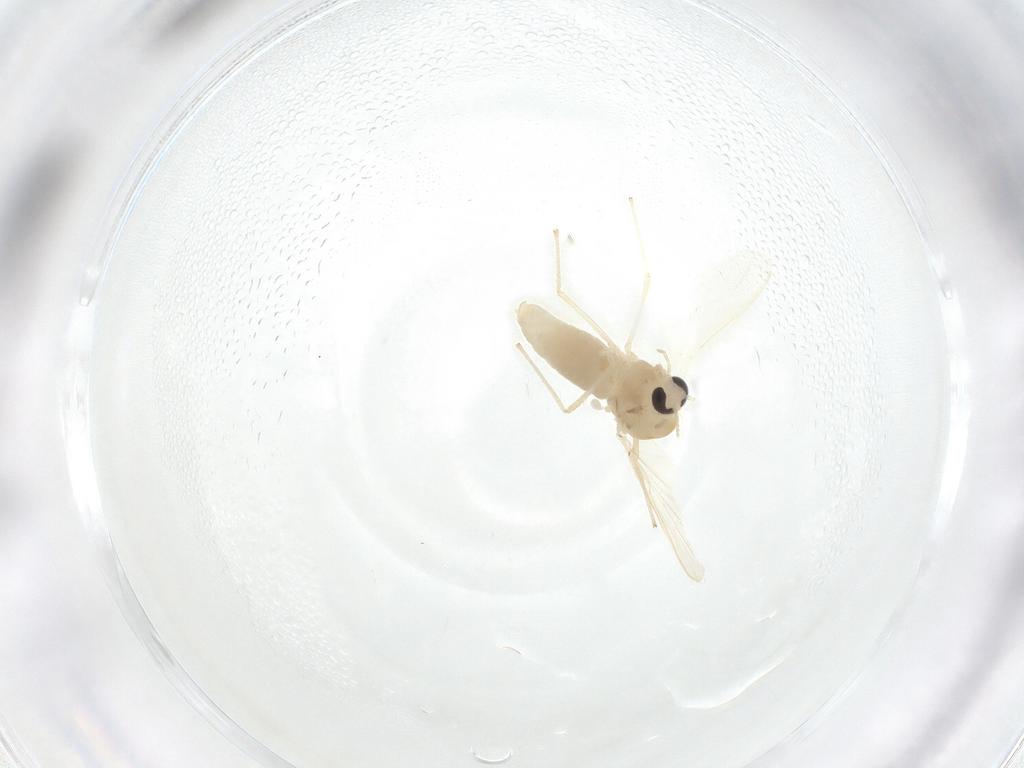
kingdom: Animalia
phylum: Arthropoda
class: Insecta
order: Diptera
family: Chironomidae
